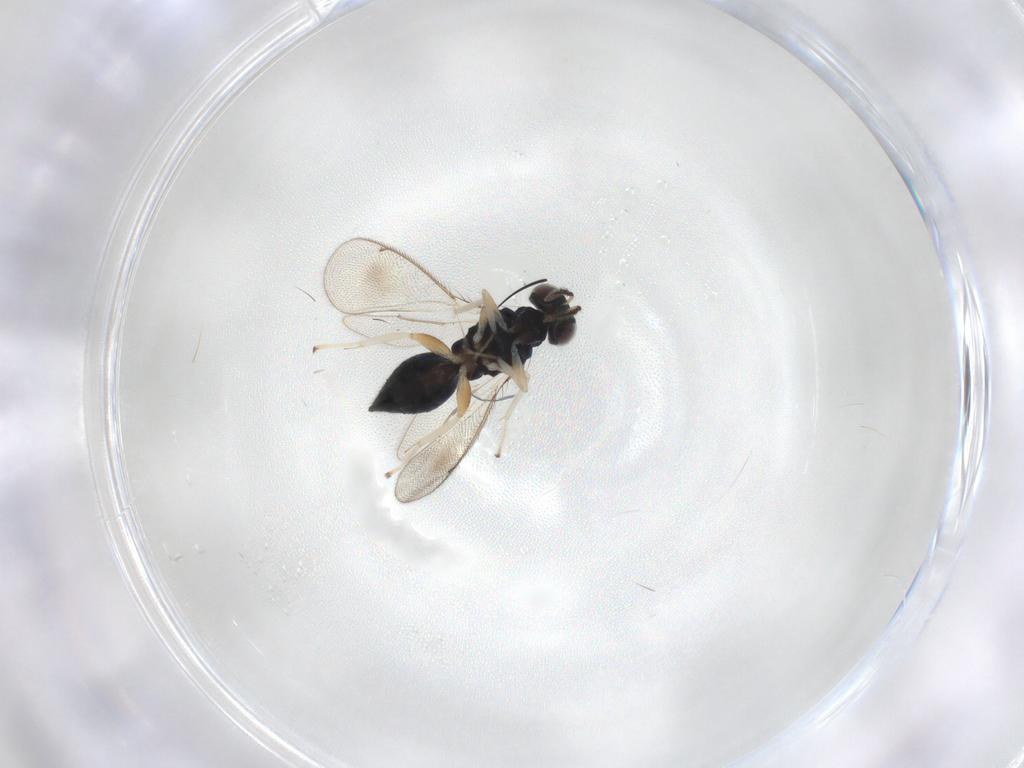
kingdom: Animalia
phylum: Arthropoda
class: Insecta
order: Hymenoptera
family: Eulophidae
